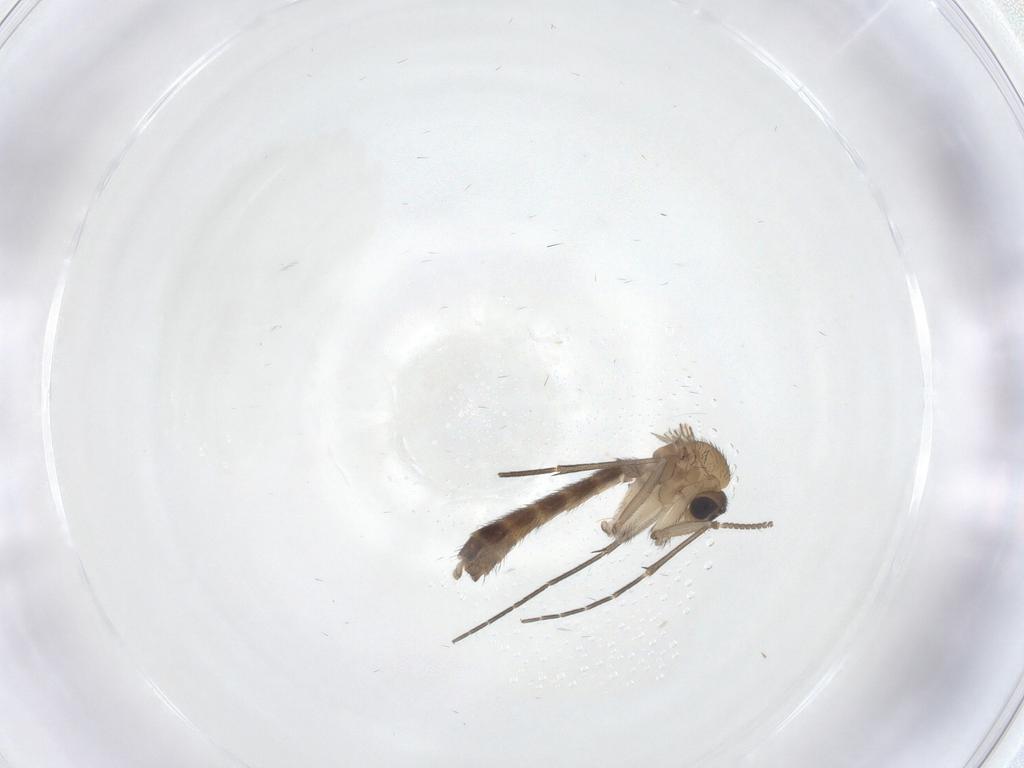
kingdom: Animalia
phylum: Arthropoda
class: Insecta
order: Diptera
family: Keroplatidae
